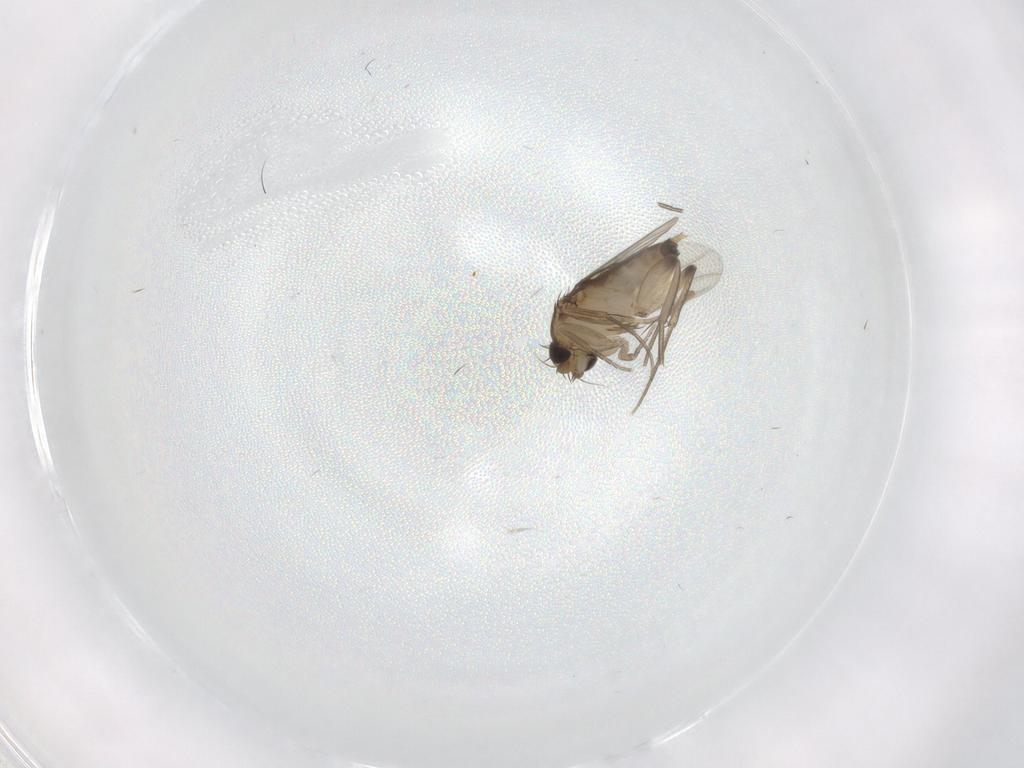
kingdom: Animalia
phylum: Arthropoda
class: Insecta
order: Diptera
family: Phoridae
